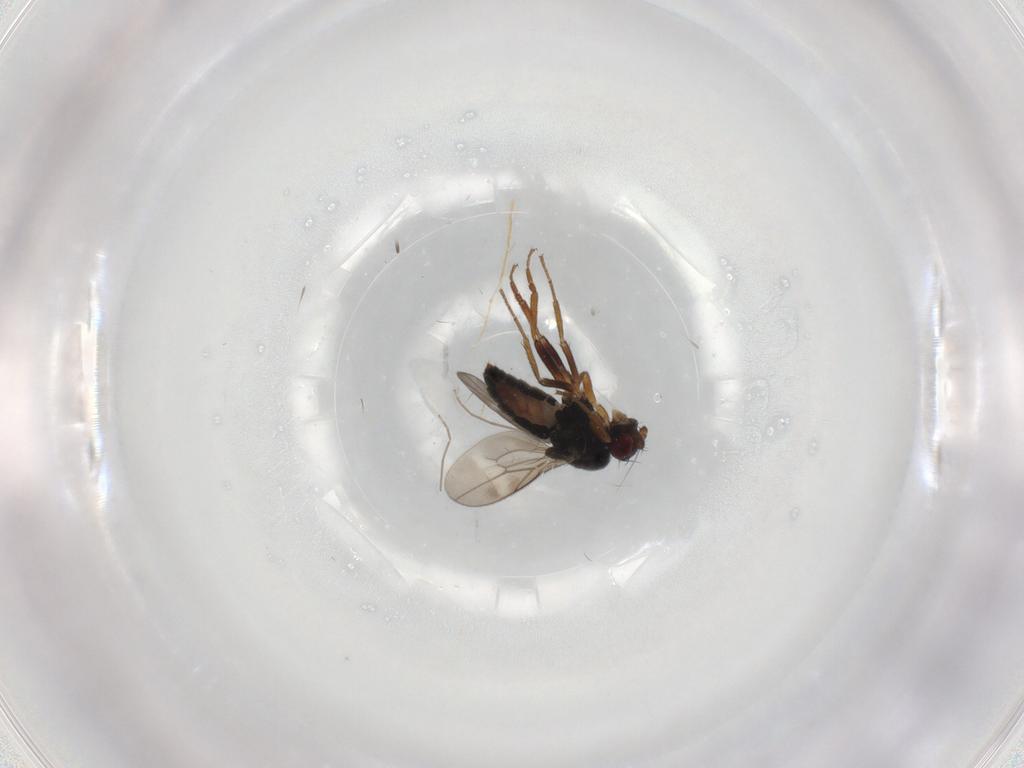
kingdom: Animalia
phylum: Arthropoda
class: Insecta
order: Diptera
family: Sphaeroceridae
